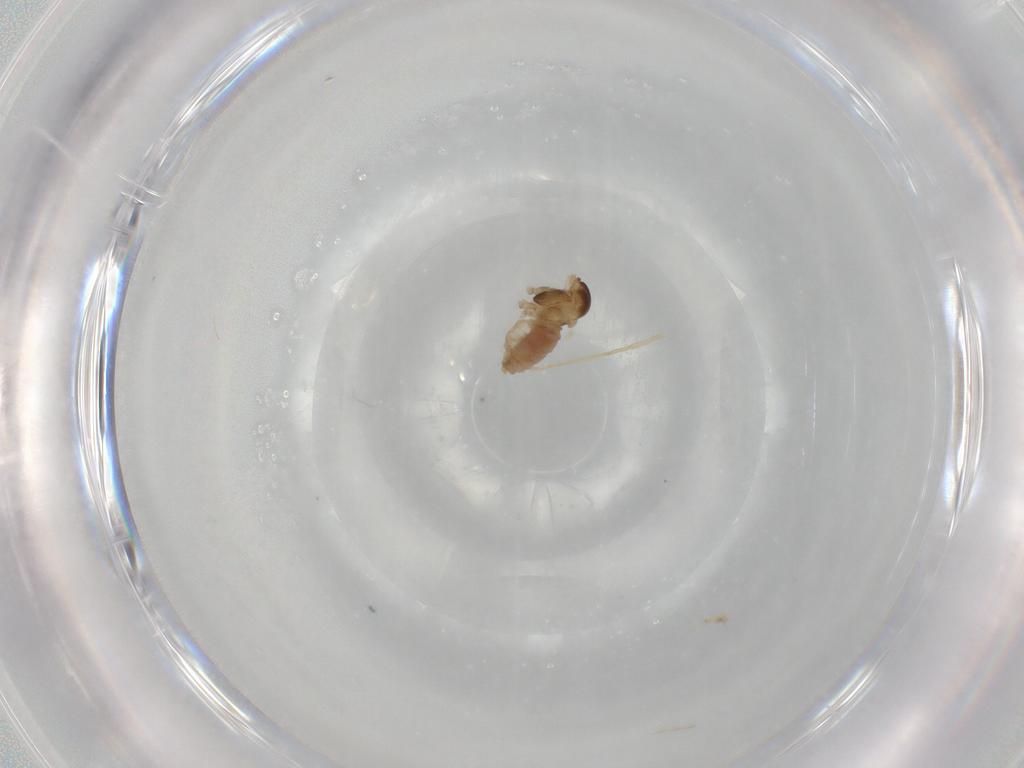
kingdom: Animalia
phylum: Arthropoda
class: Insecta
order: Diptera
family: Cecidomyiidae
